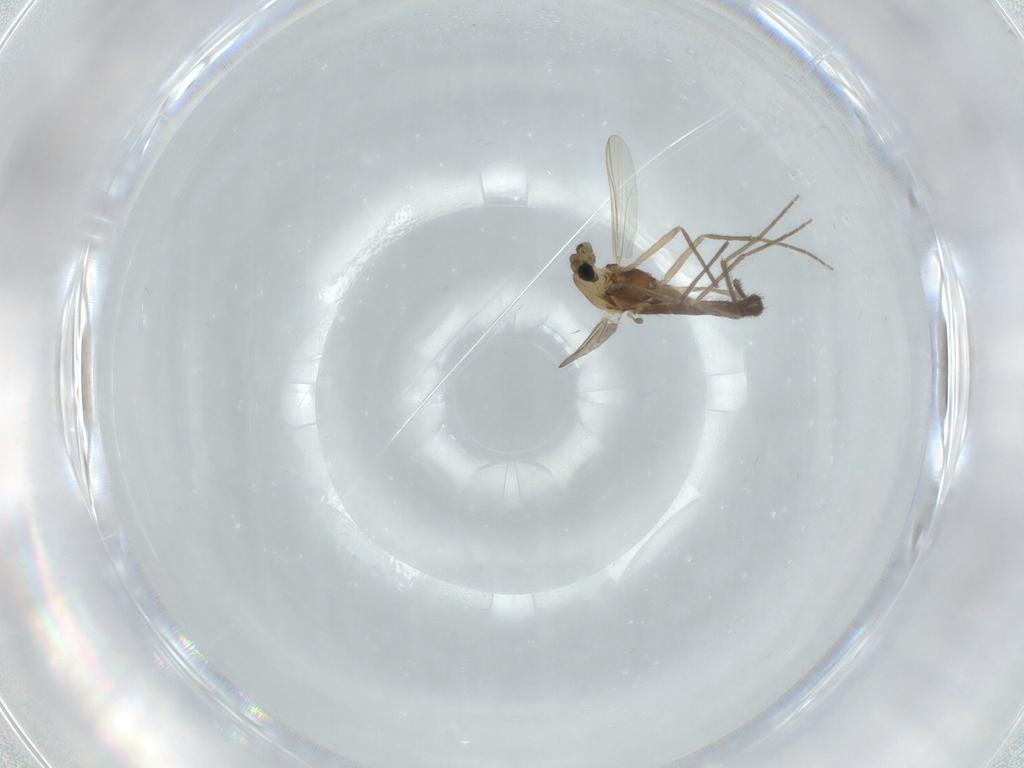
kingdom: Animalia
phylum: Arthropoda
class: Insecta
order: Diptera
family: Chironomidae
